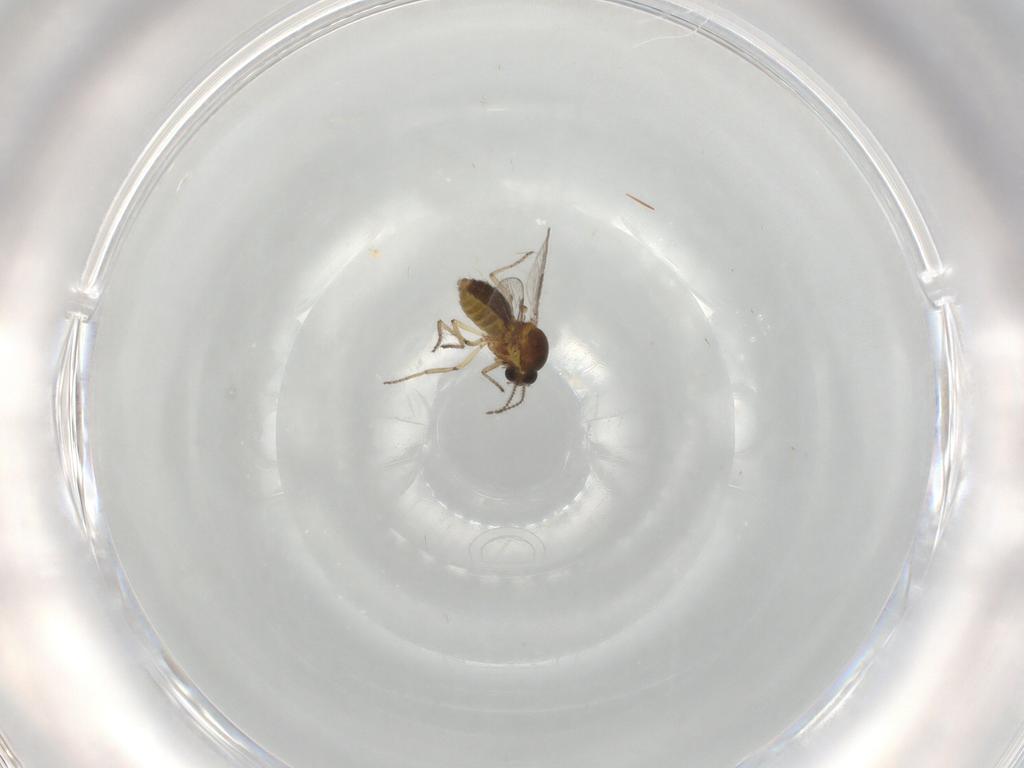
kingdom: Animalia
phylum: Arthropoda
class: Insecta
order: Diptera
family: Ceratopogonidae
